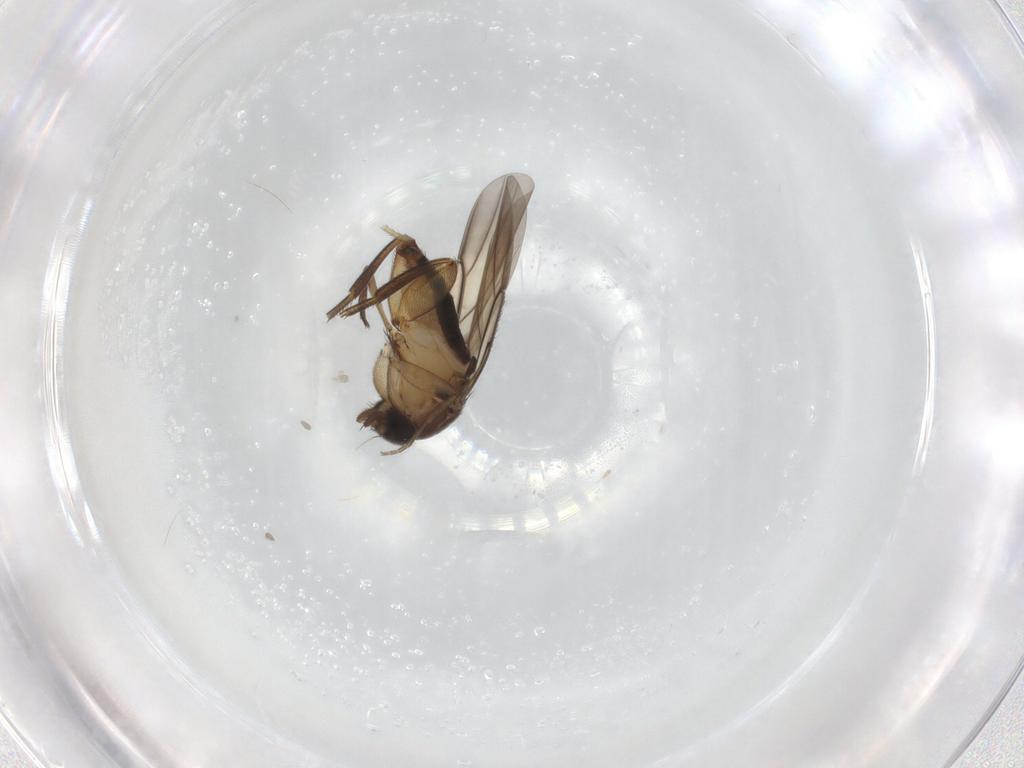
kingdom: Animalia
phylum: Arthropoda
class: Insecta
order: Diptera
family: Phoridae
